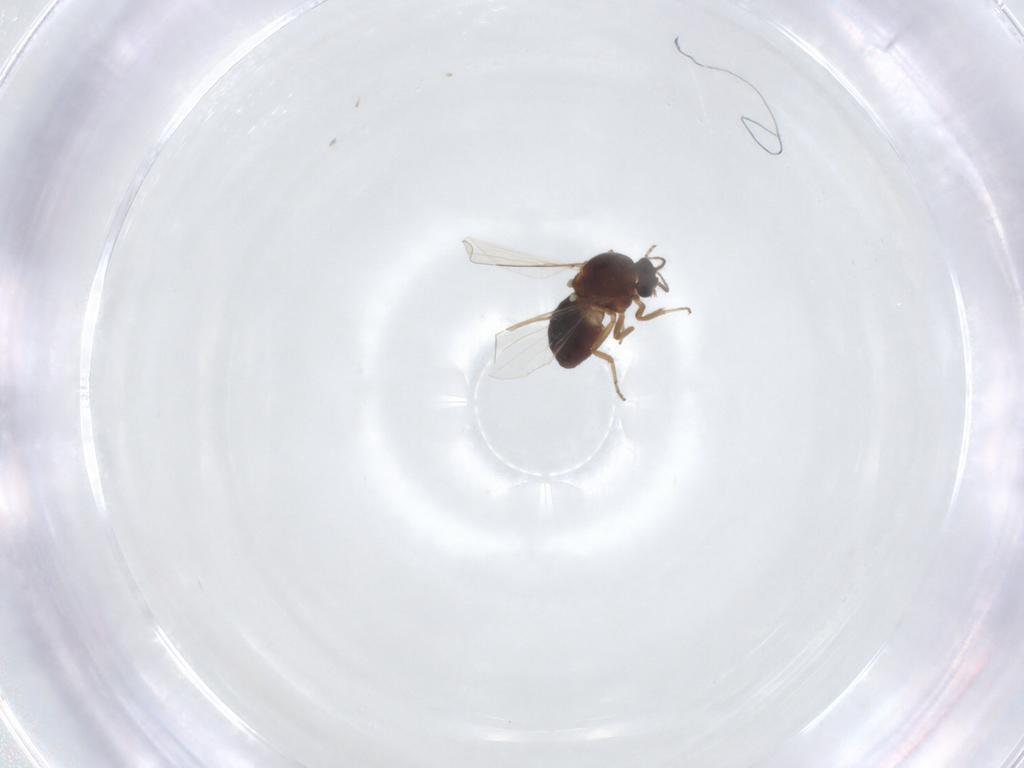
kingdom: Animalia
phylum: Arthropoda
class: Insecta
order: Diptera
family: Ceratopogonidae
